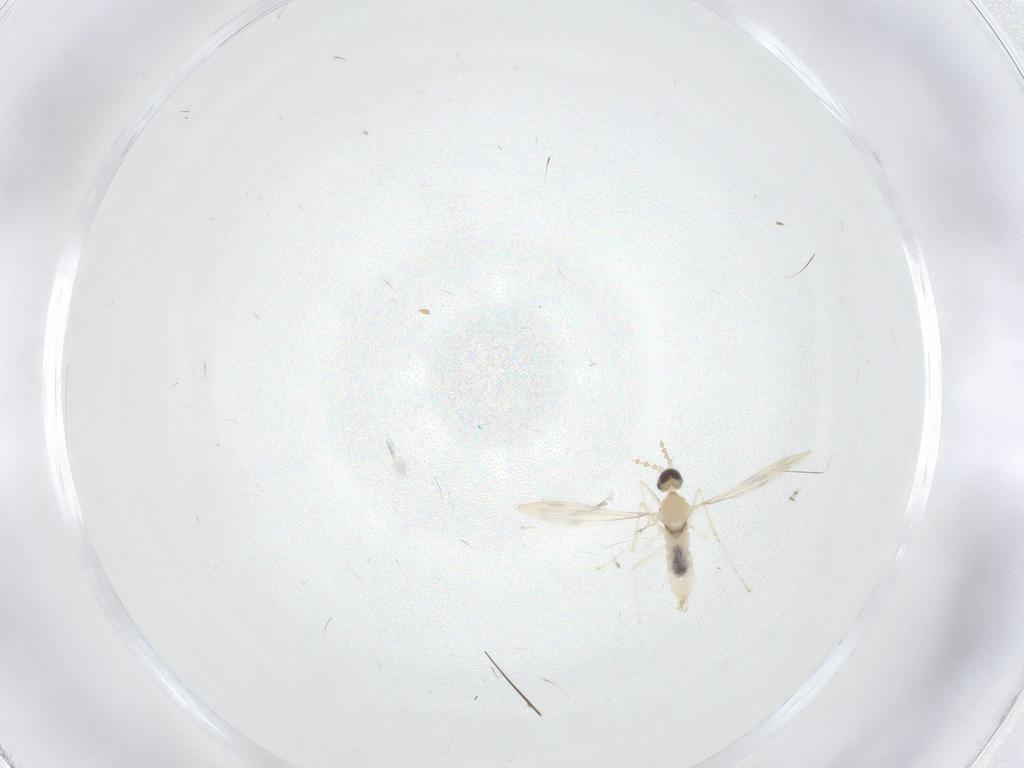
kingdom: Animalia
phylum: Arthropoda
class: Insecta
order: Diptera
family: Cecidomyiidae
